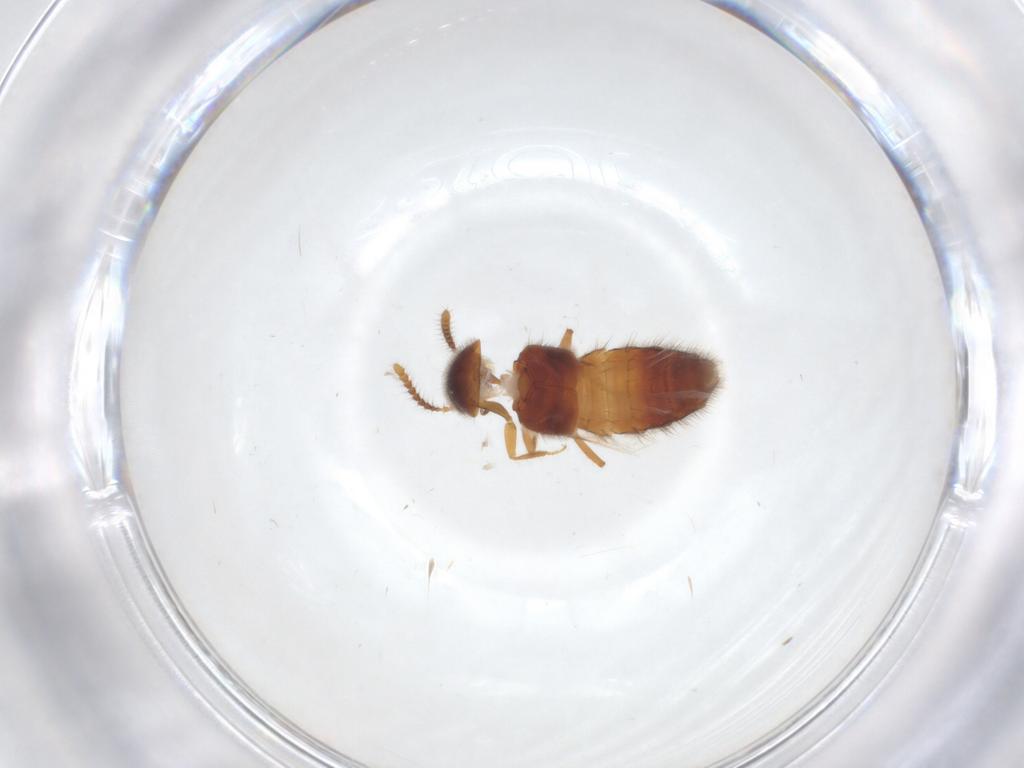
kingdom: Animalia
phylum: Arthropoda
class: Insecta
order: Coleoptera
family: Staphylinidae
